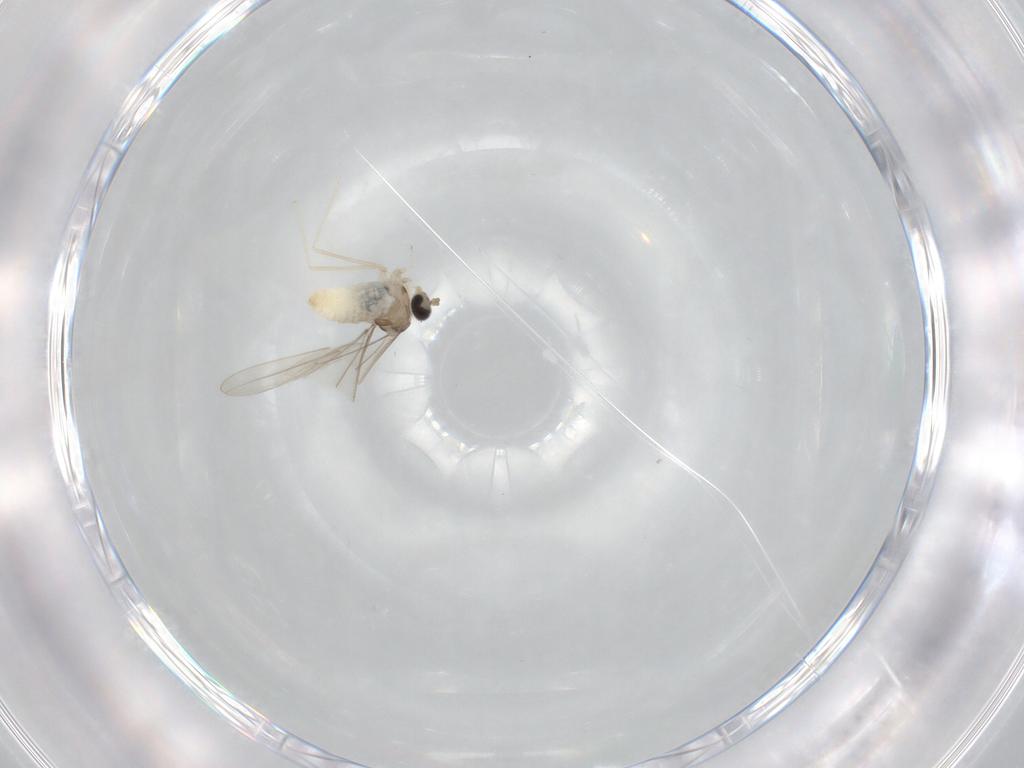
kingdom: Animalia
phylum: Arthropoda
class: Insecta
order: Diptera
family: Cecidomyiidae
